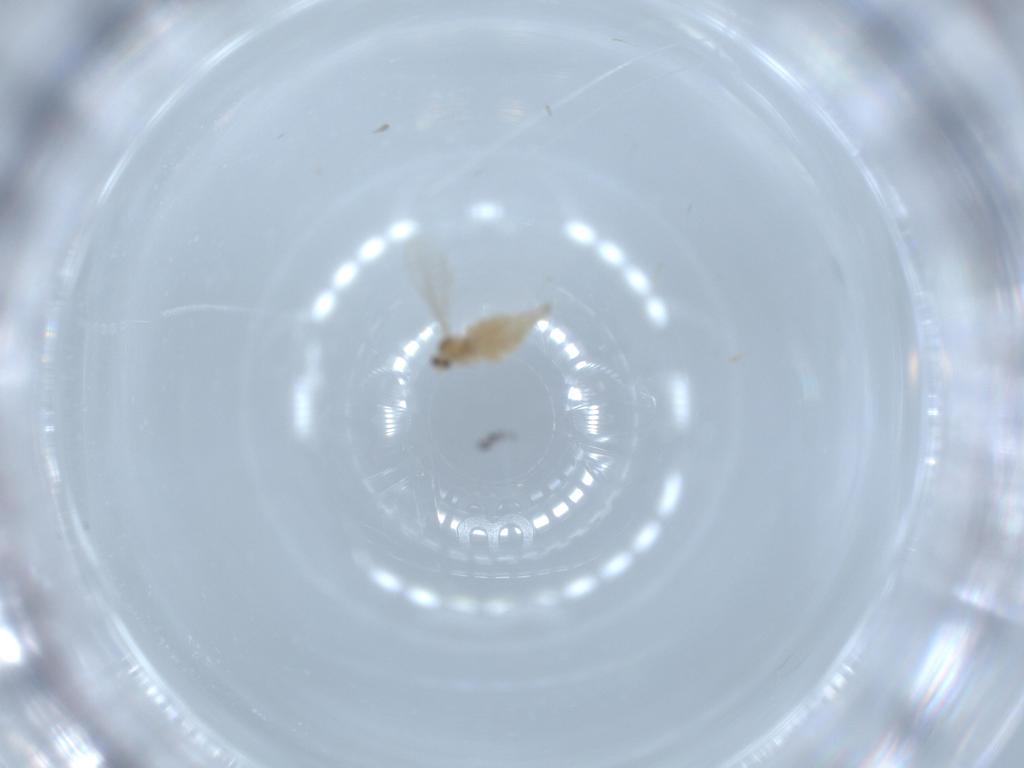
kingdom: Animalia
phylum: Arthropoda
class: Insecta
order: Diptera
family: Cecidomyiidae
